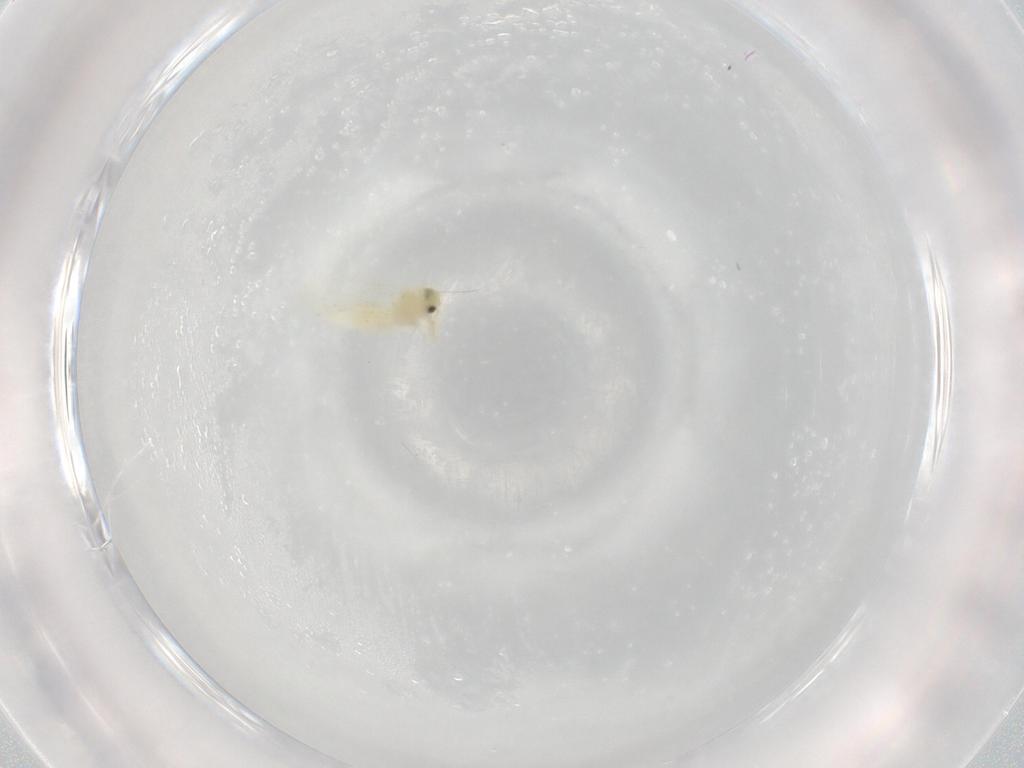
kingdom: Animalia
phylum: Arthropoda
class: Insecta
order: Hemiptera
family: Aleyrodidae
